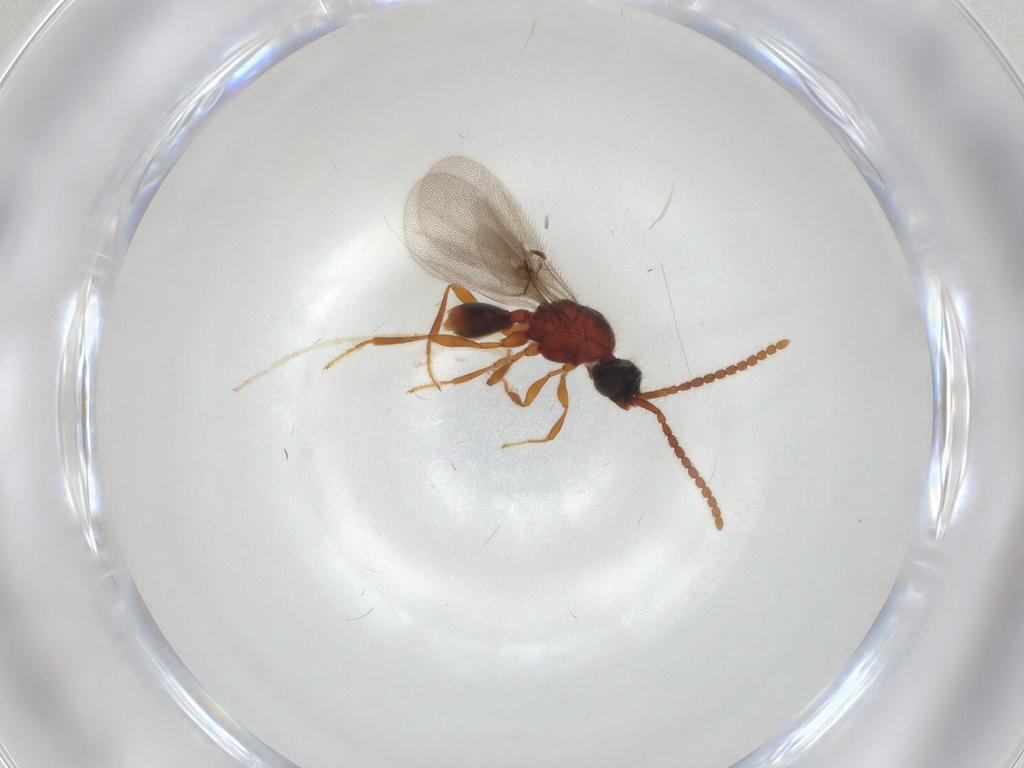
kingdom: Animalia
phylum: Arthropoda
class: Insecta
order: Hymenoptera
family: Diapriidae
